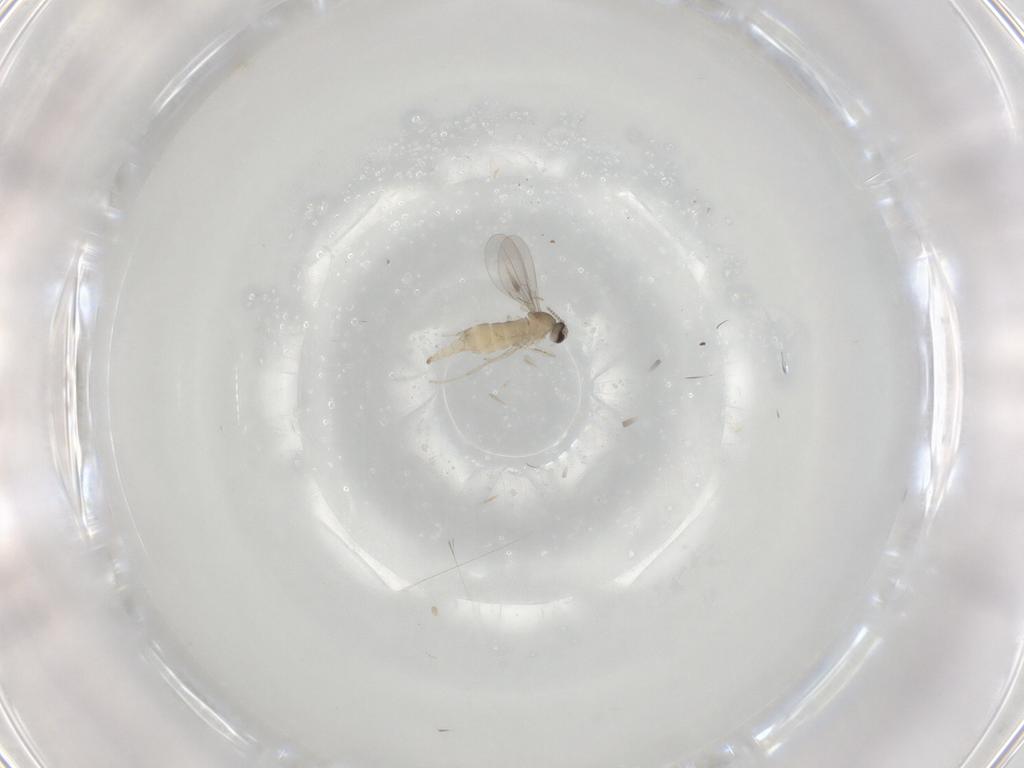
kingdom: Animalia
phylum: Arthropoda
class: Insecta
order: Diptera
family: Cecidomyiidae
